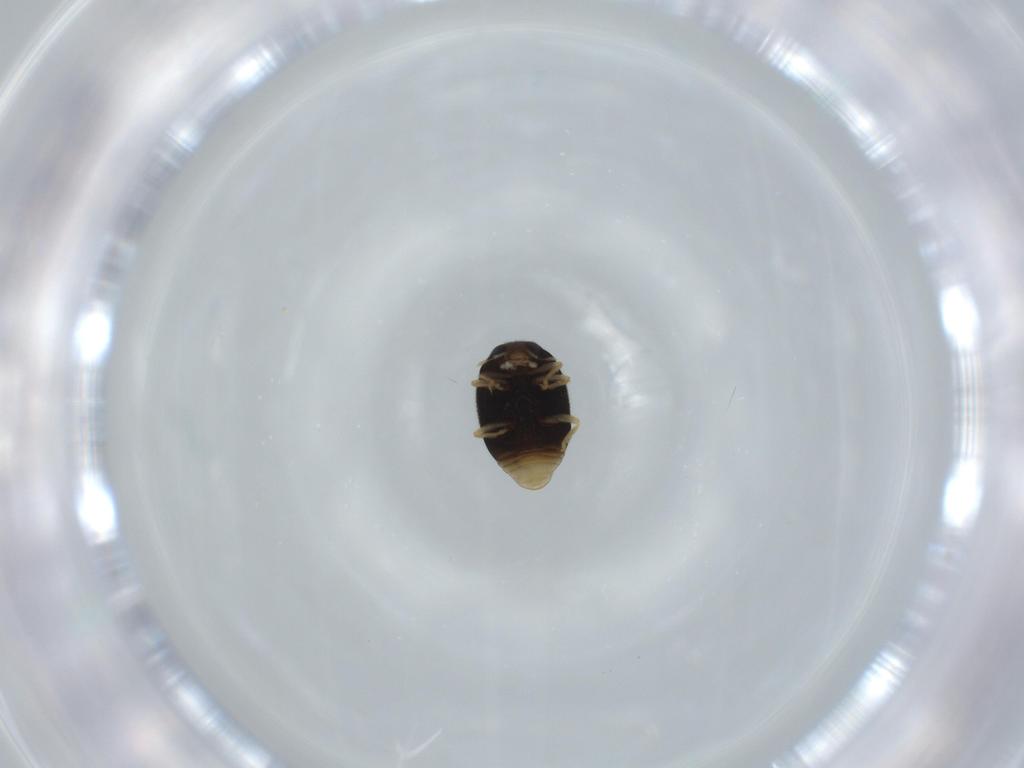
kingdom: Animalia
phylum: Arthropoda
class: Insecta
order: Coleoptera
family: Coccinellidae
